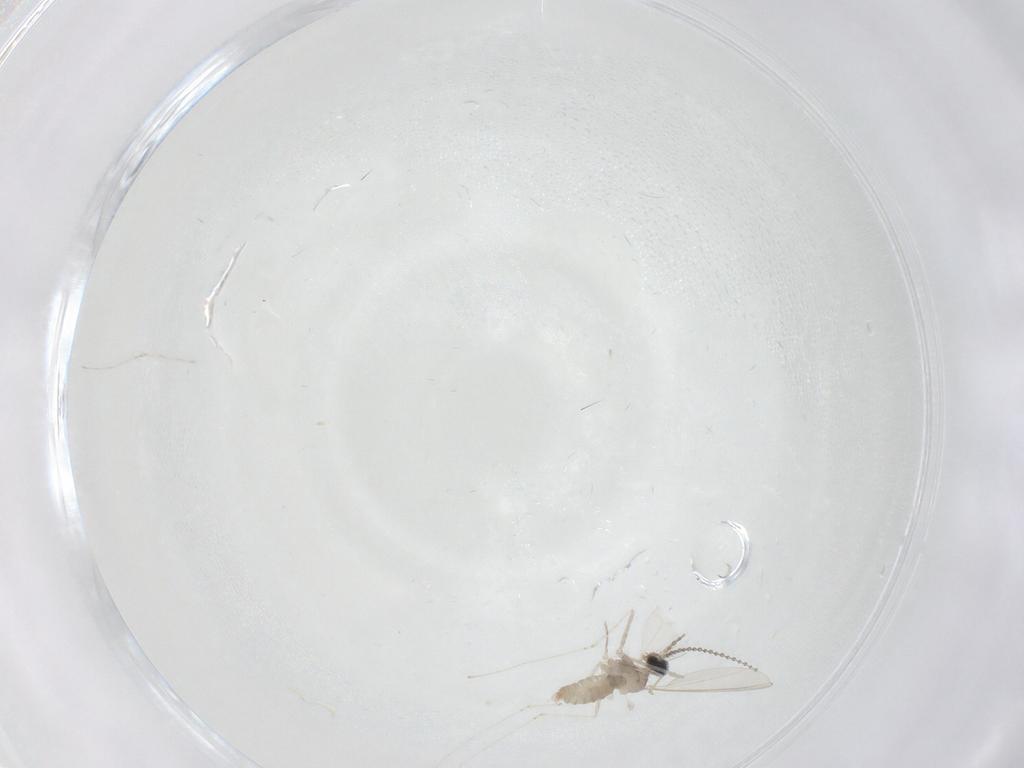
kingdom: Animalia
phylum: Arthropoda
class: Insecta
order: Diptera
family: Cecidomyiidae
